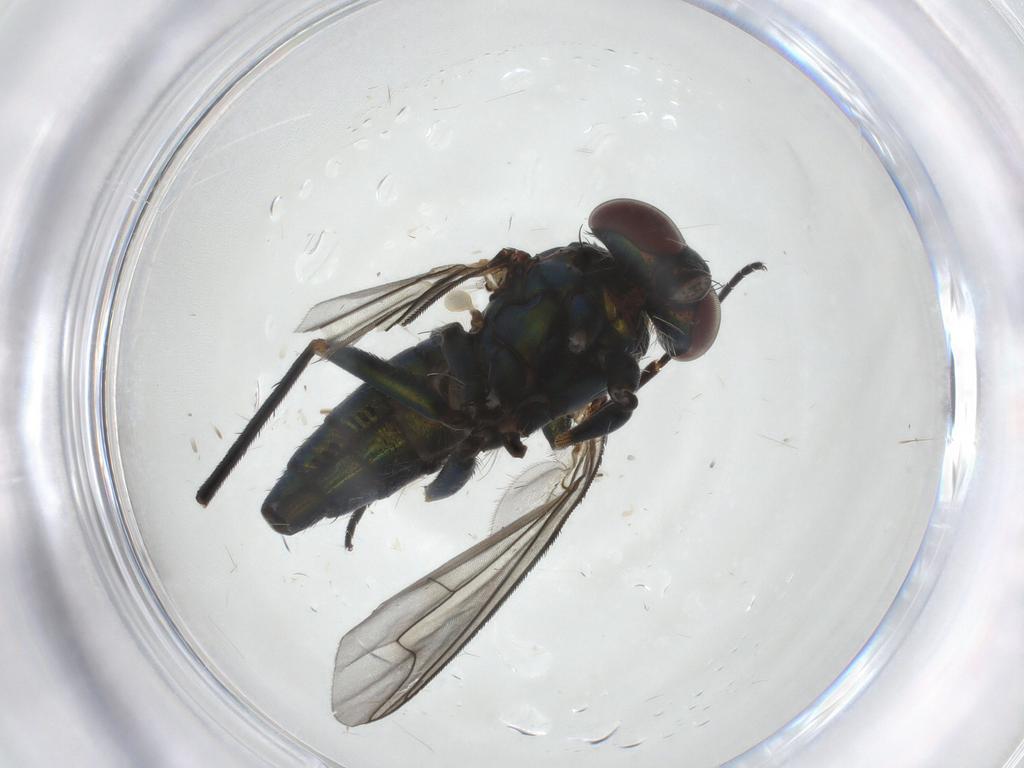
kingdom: Animalia
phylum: Arthropoda
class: Insecta
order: Diptera
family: Dolichopodidae
